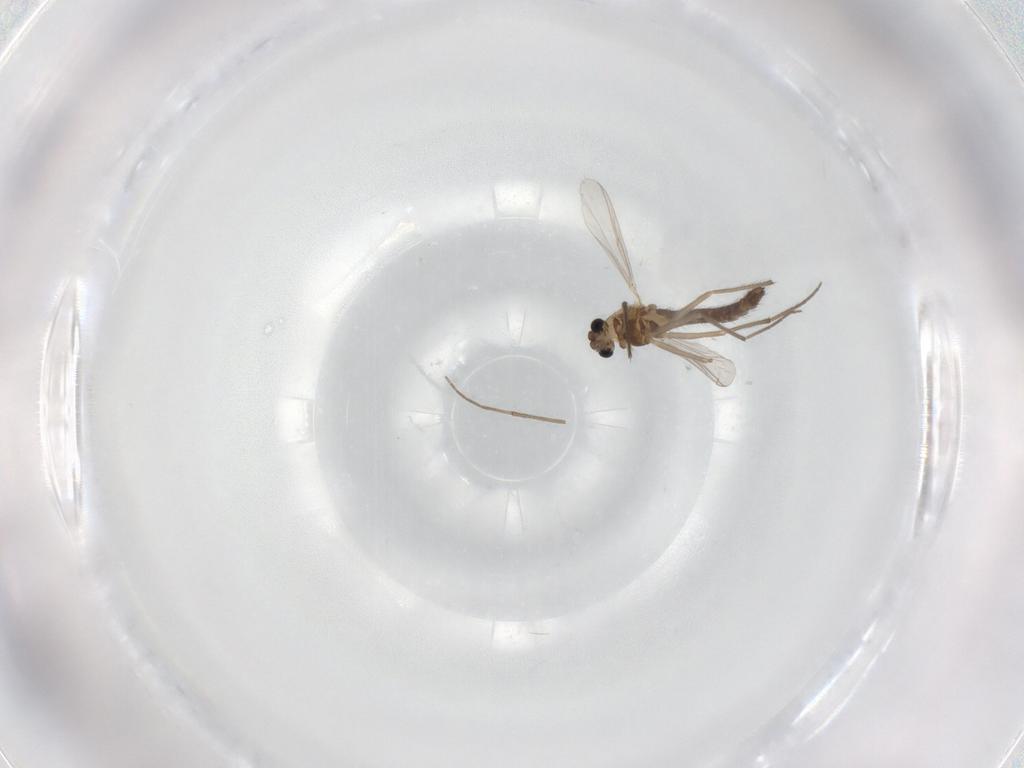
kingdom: Animalia
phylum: Arthropoda
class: Insecta
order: Diptera
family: Chironomidae
